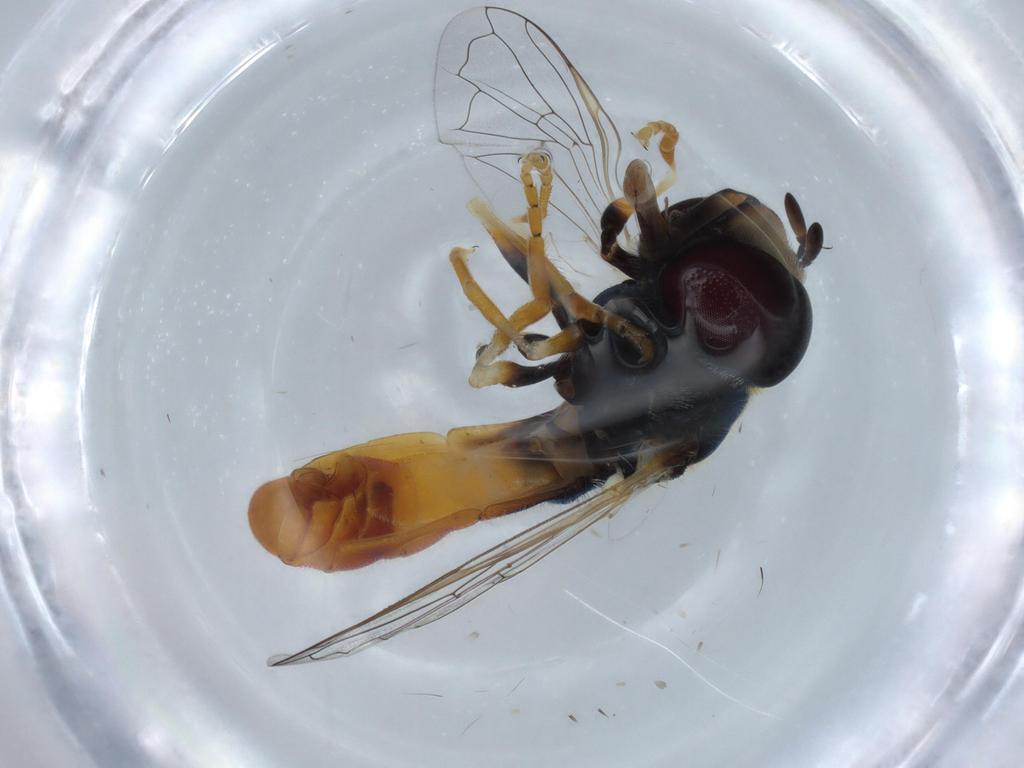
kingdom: Animalia
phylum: Arthropoda
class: Insecta
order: Diptera
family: Syrphidae
